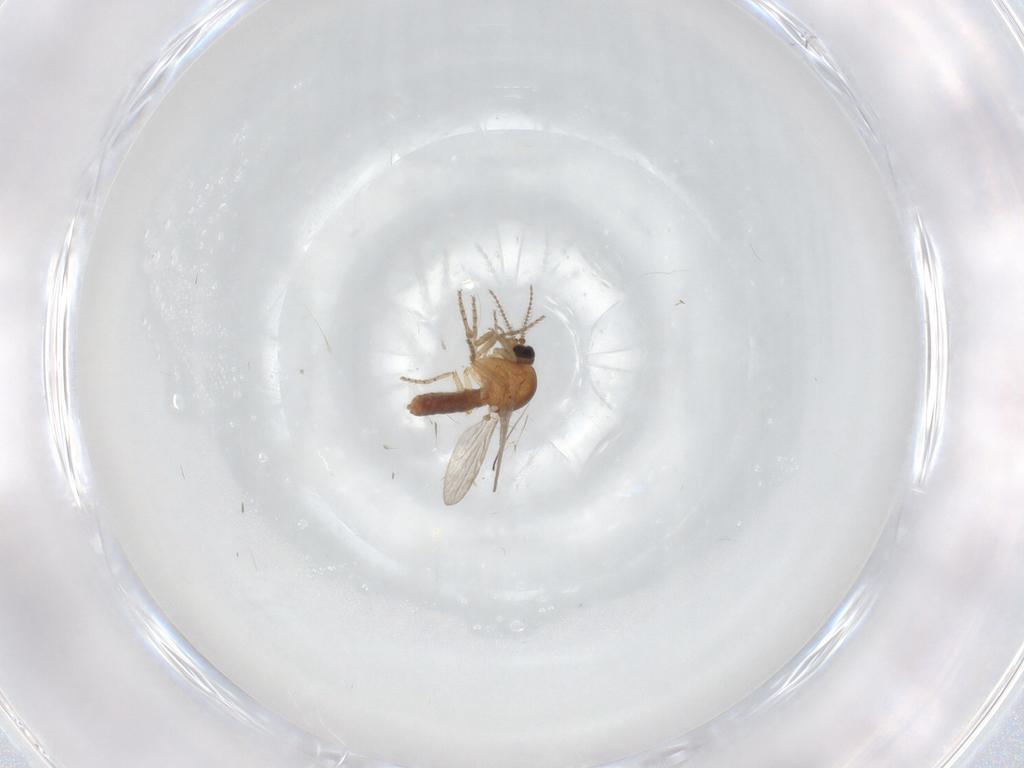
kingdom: Animalia
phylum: Arthropoda
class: Insecta
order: Diptera
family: Ceratopogonidae
